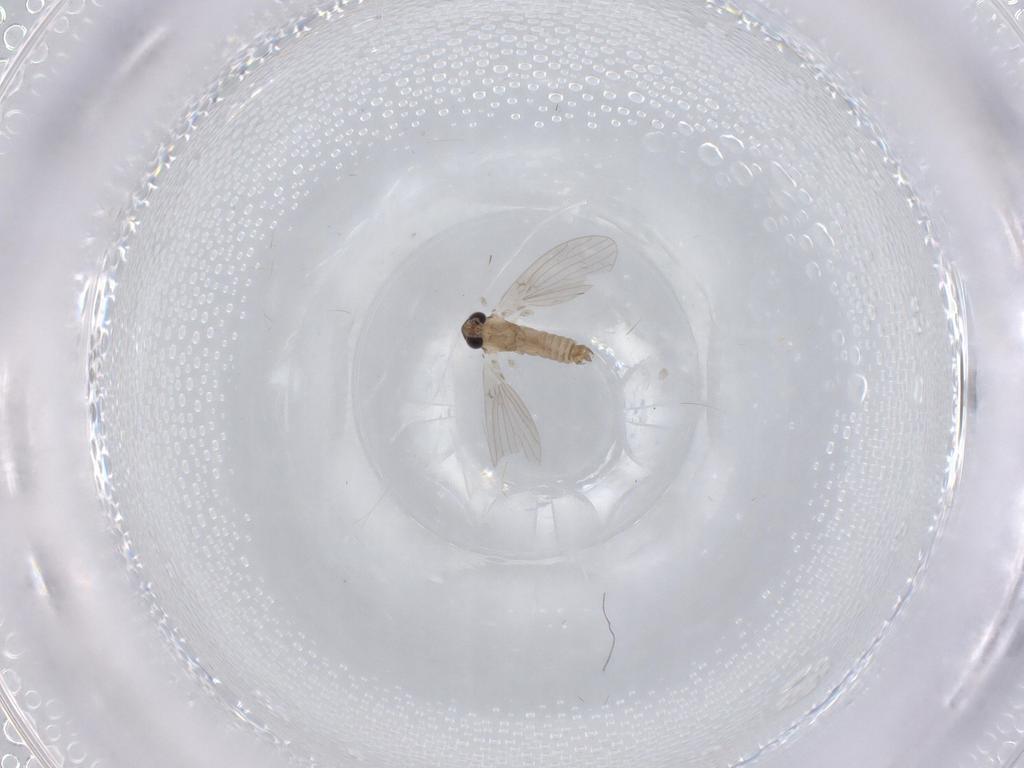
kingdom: Animalia
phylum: Arthropoda
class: Insecta
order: Diptera
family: Psychodidae
